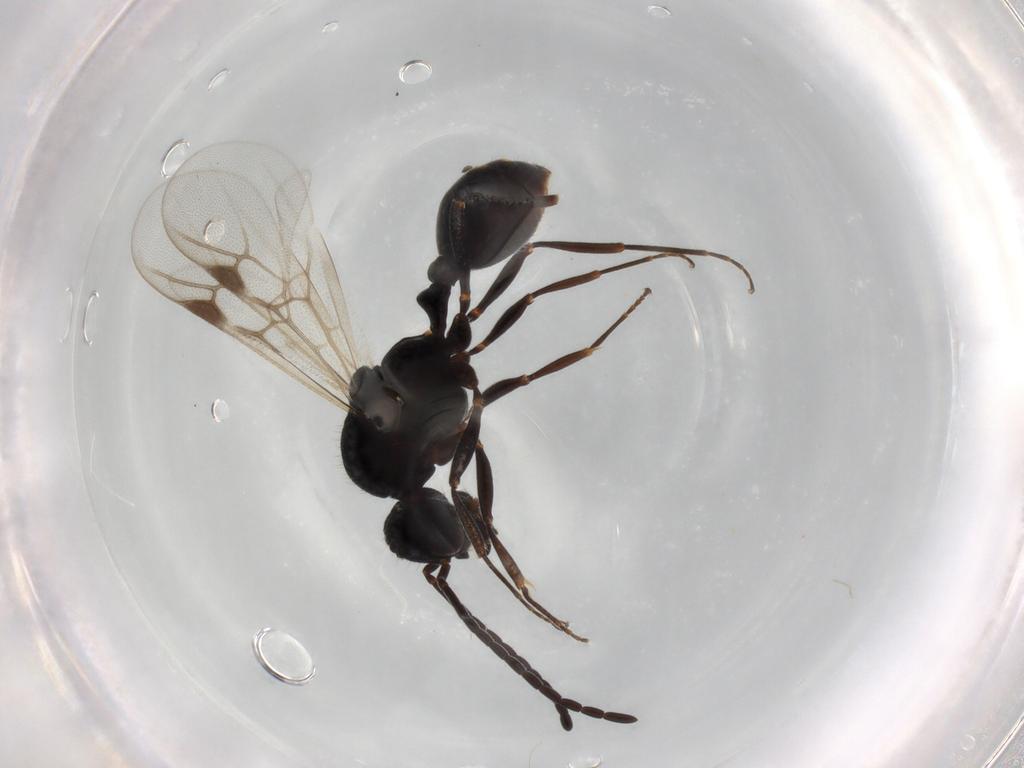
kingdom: Animalia
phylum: Arthropoda
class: Insecta
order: Hymenoptera
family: Formicidae
